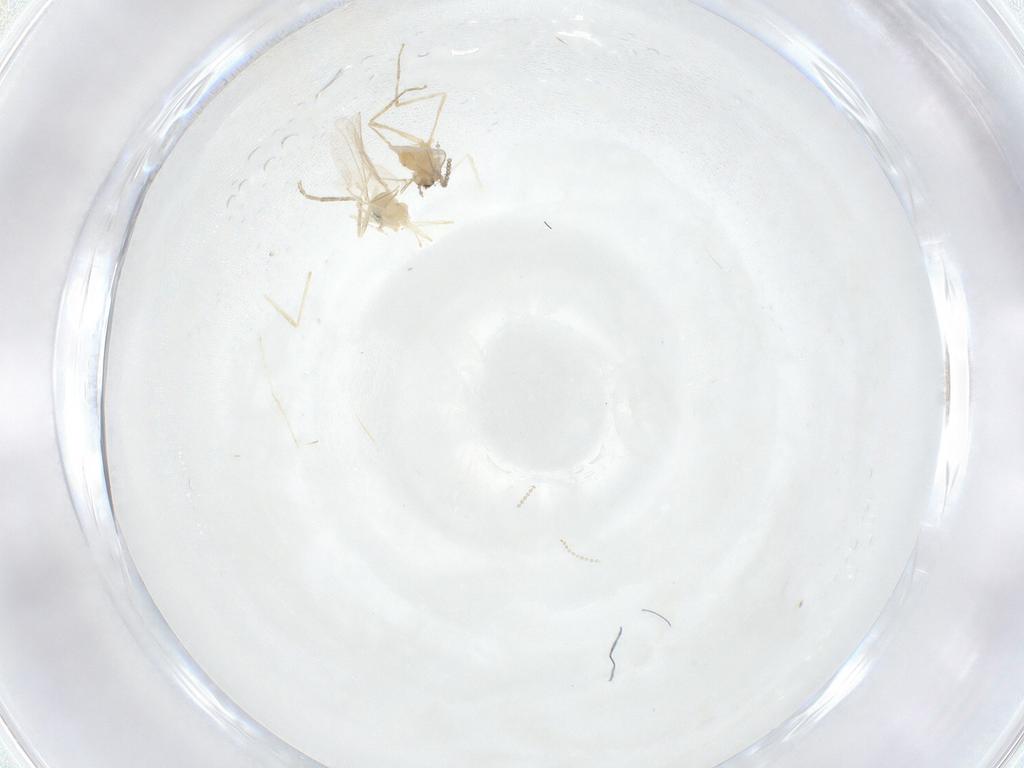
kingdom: Animalia
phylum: Arthropoda
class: Insecta
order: Diptera
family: Cecidomyiidae
